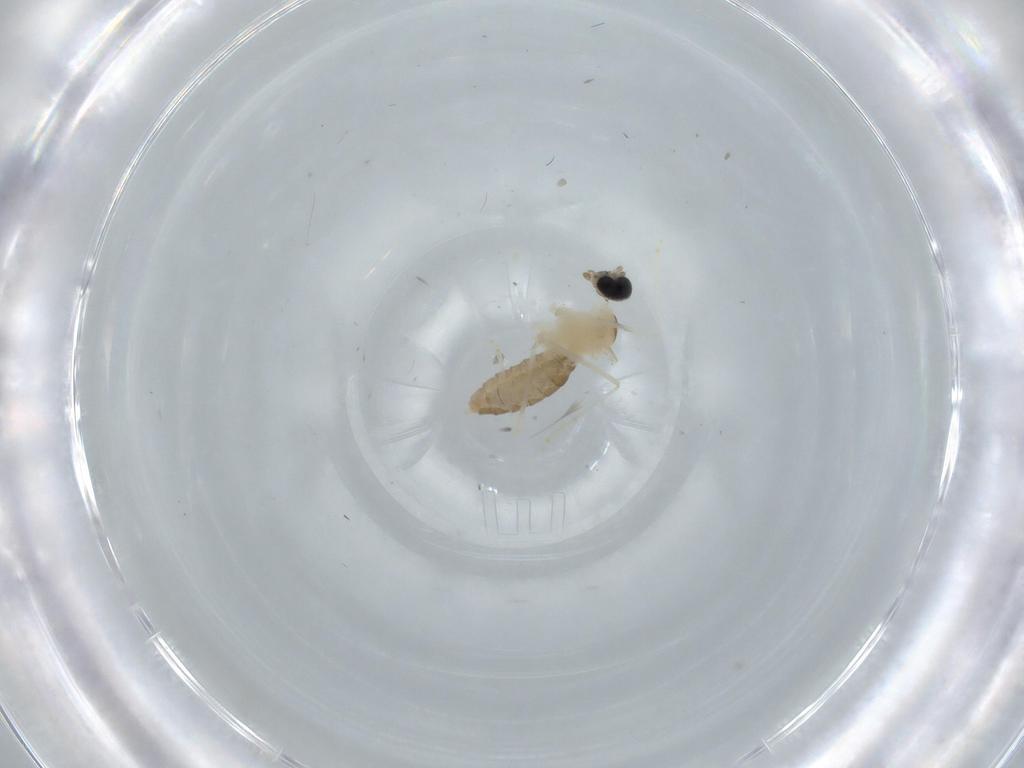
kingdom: Animalia
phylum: Arthropoda
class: Insecta
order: Diptera
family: Cecidomyiidae
